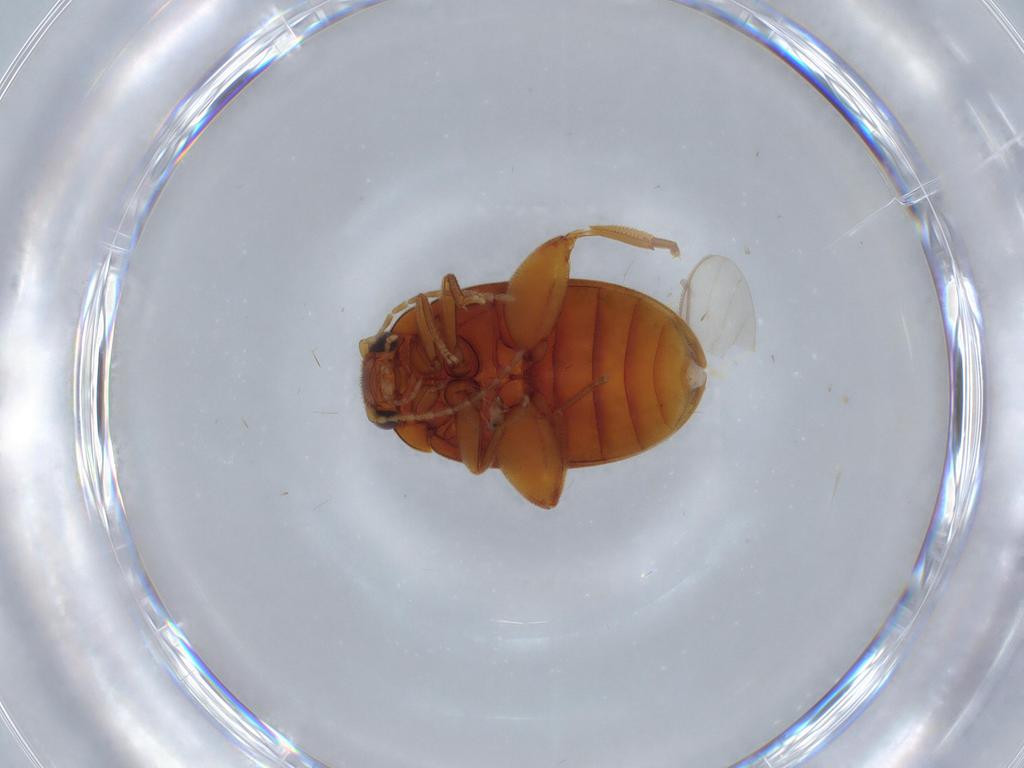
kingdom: Animalia
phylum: Arthropoda
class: Insecta
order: Coleoptera
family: Scirtidae
